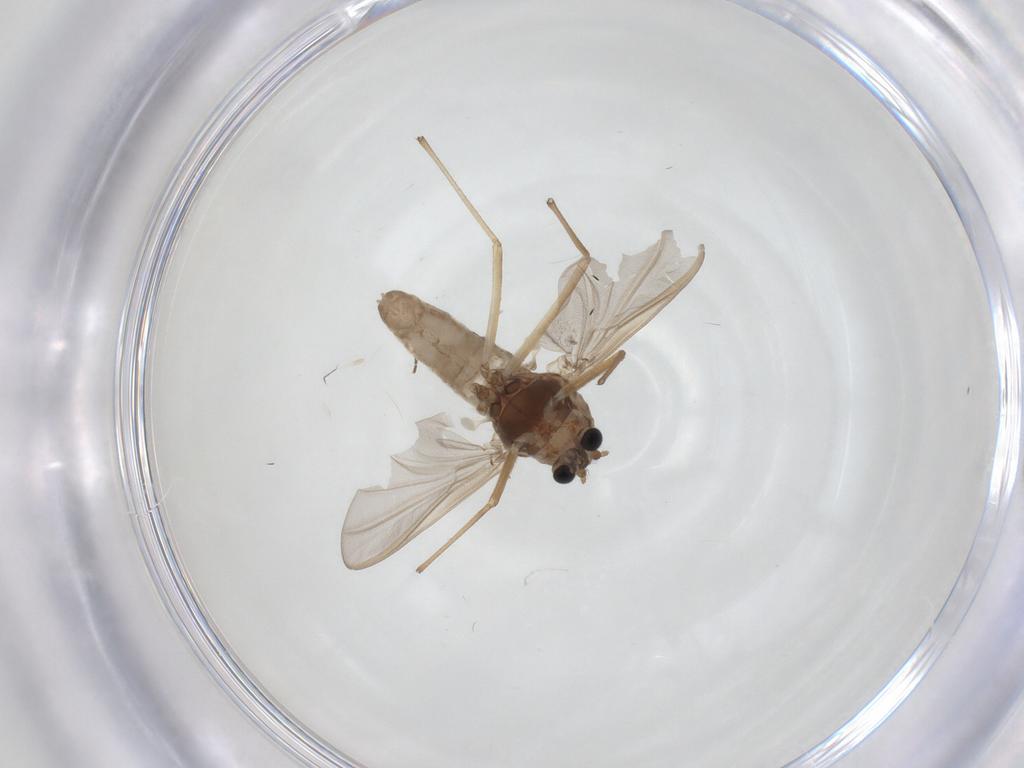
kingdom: Animalia
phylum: Arthropoda
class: Insecta
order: Diptera
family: Chironomidae
